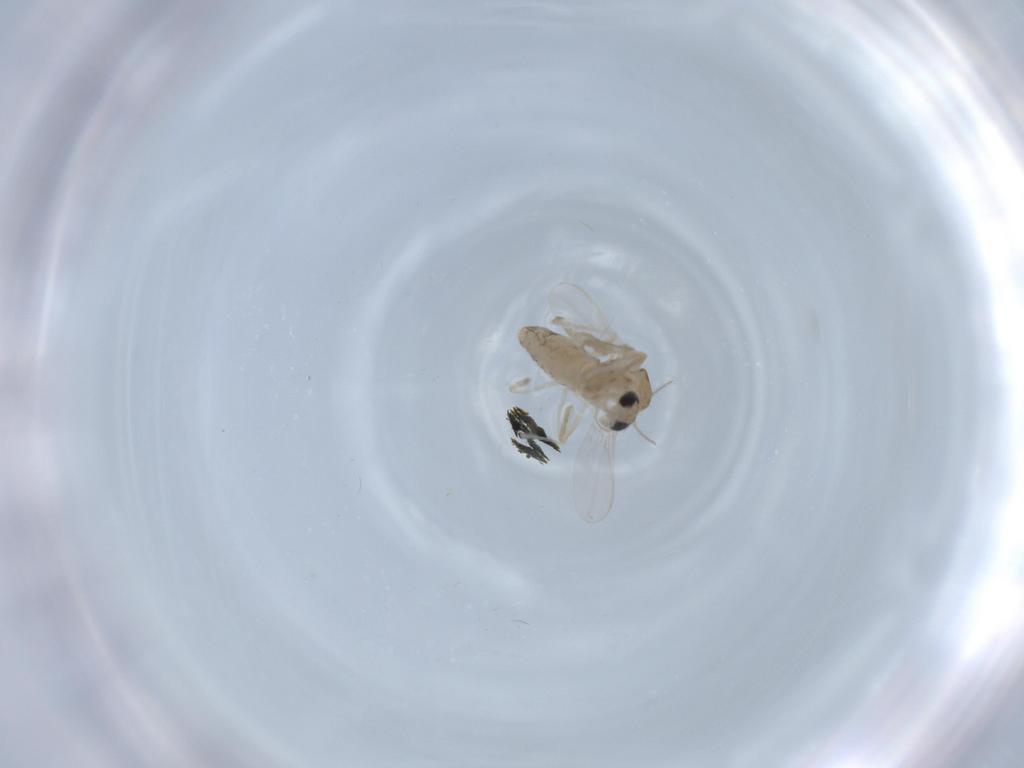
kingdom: Animalia
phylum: Arthropoda
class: Insecta
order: Diptera
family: Chironomidae
